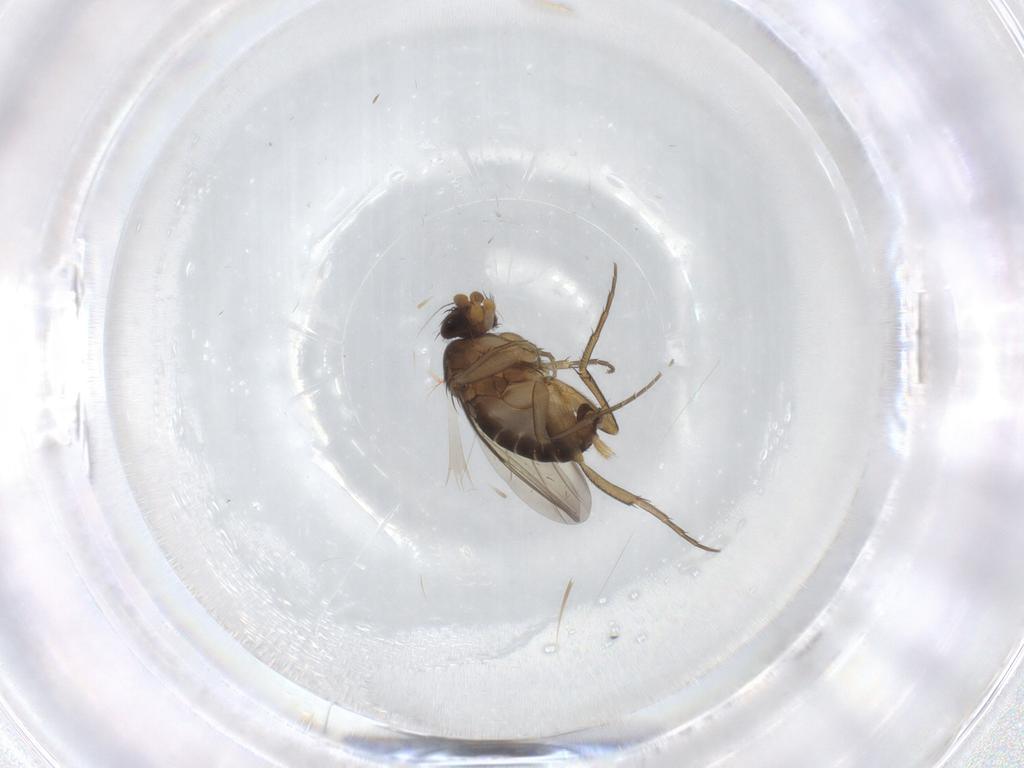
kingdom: Animalia
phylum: Arthropoda
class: Insecta
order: Diptera
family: Phoridae
